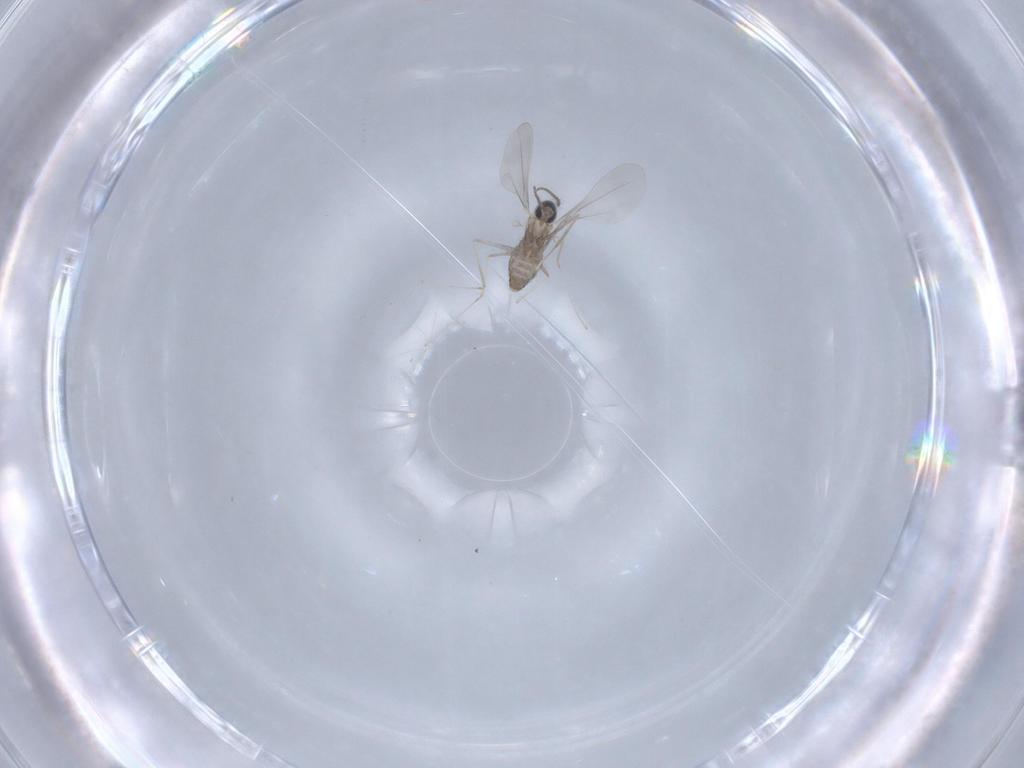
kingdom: Animalia
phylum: Arthropoda
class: Insecta
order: Diptera
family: Cecidomyiidae
